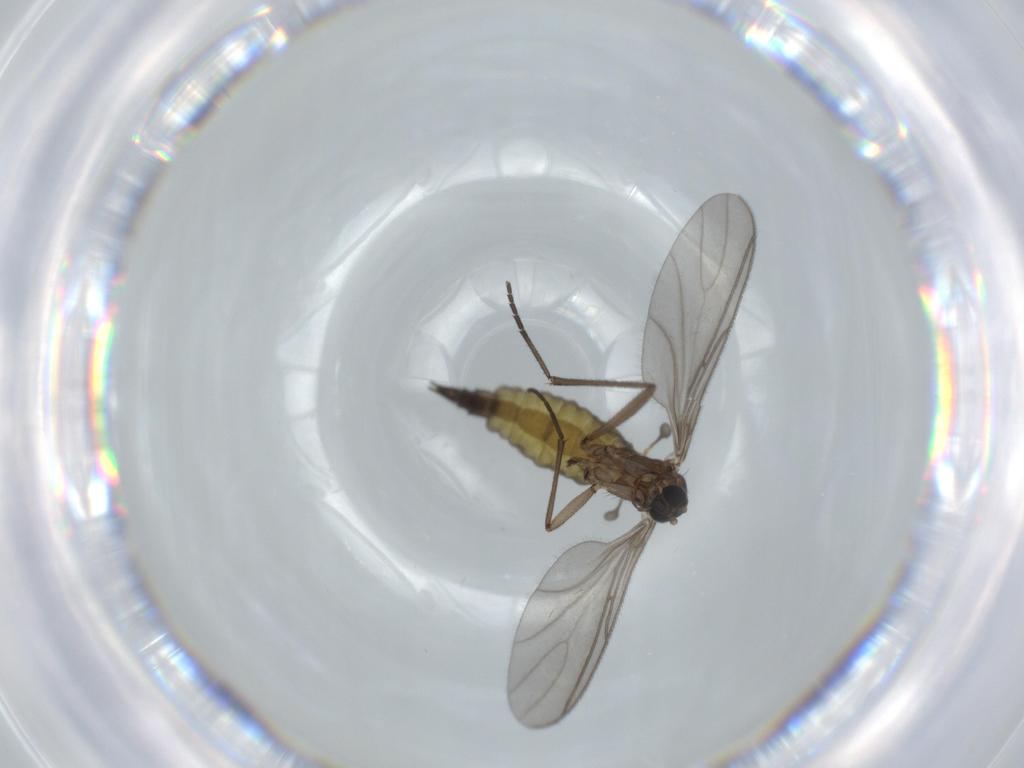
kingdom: Animalia
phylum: Arthropoda
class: Insecta
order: Diptera
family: Sciaridae
